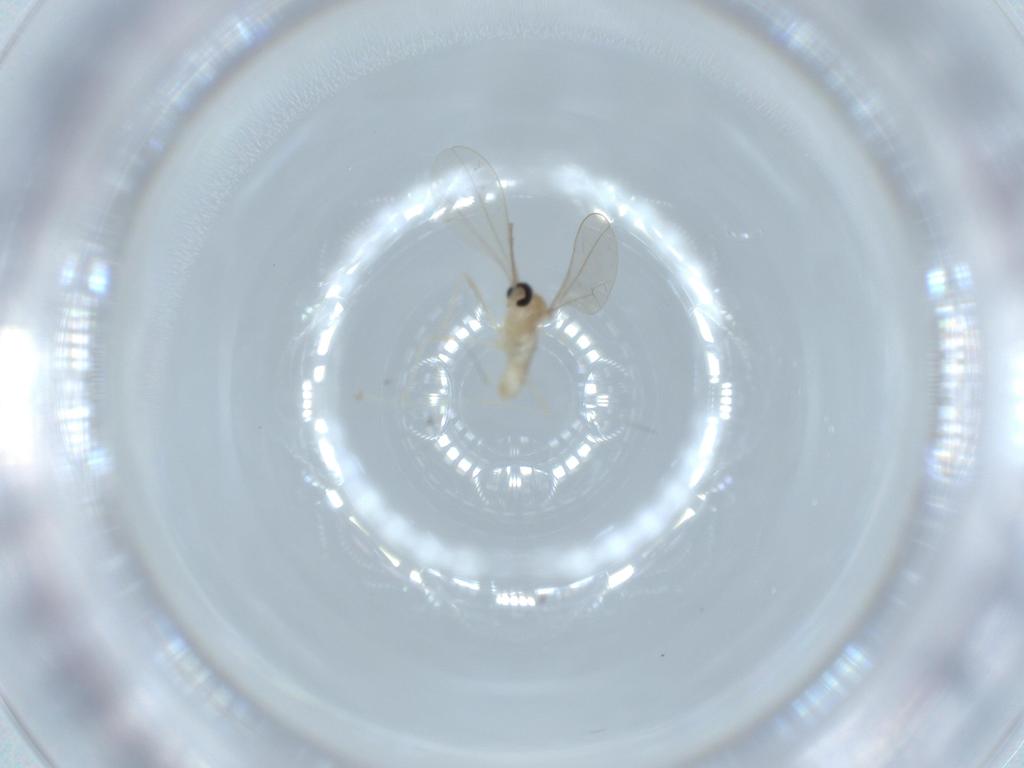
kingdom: Animalia
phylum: Arthropoda
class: Insecta
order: Diptera
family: Cecidomyiidae
